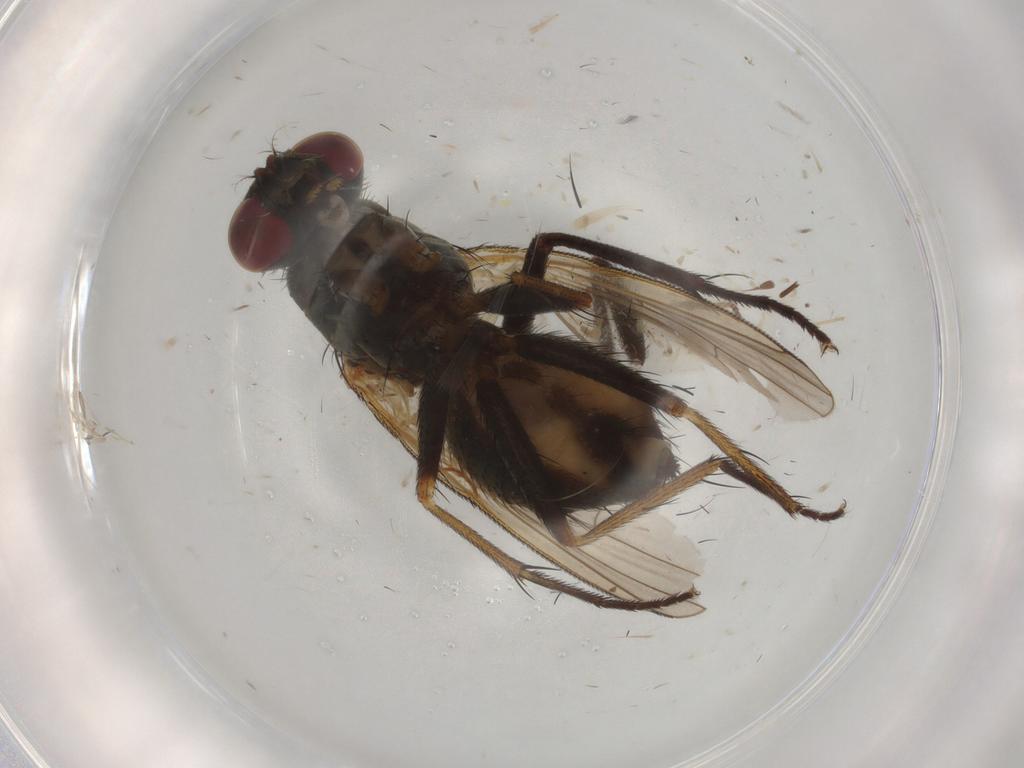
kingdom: Animalia
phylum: Arthropoda
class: Insecta
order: Diptera
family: Muscidae
